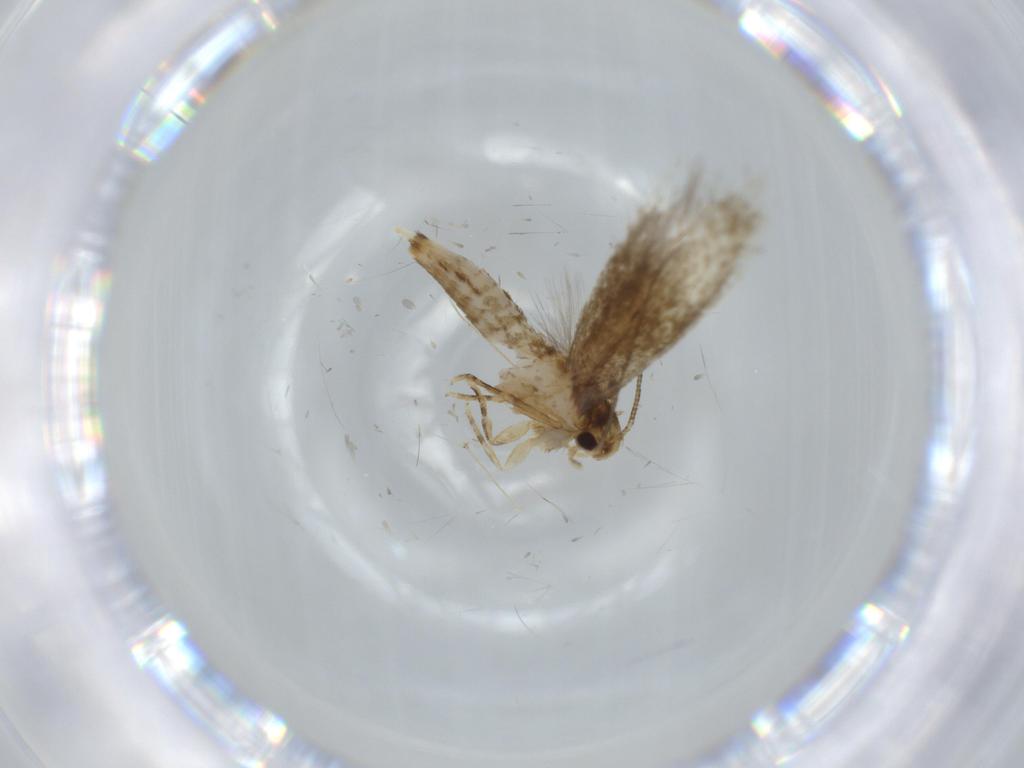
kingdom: Animalia
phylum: Arthropoda
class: Insecta
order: Lepidoptera
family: Tineidae
